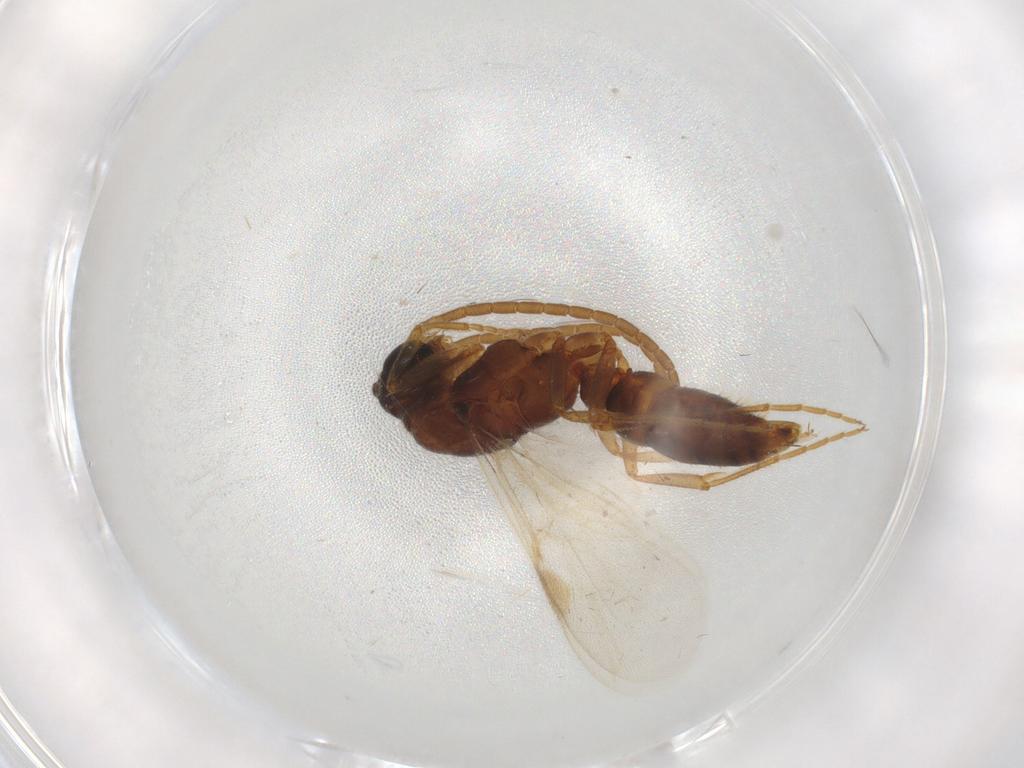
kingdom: Animalia
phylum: Arthropoda
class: Insecta
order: Hymenoptera
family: Formicidae
